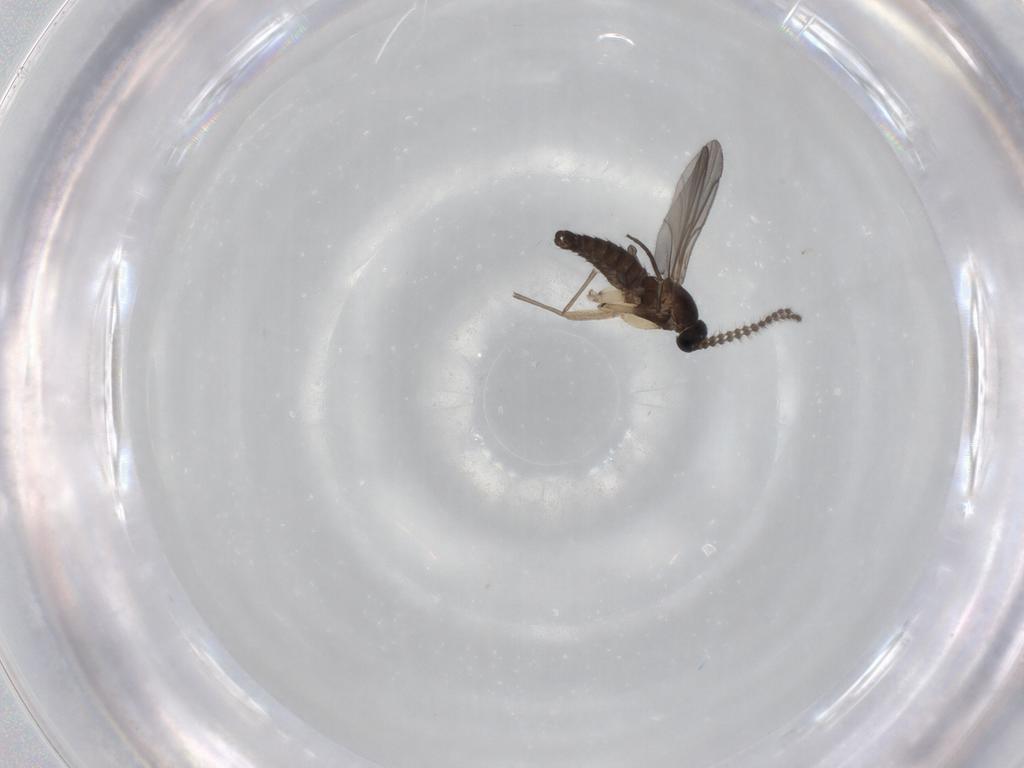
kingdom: Animalia
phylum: Arthropoda
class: Insecta
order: Diptera
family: Sciaridae
